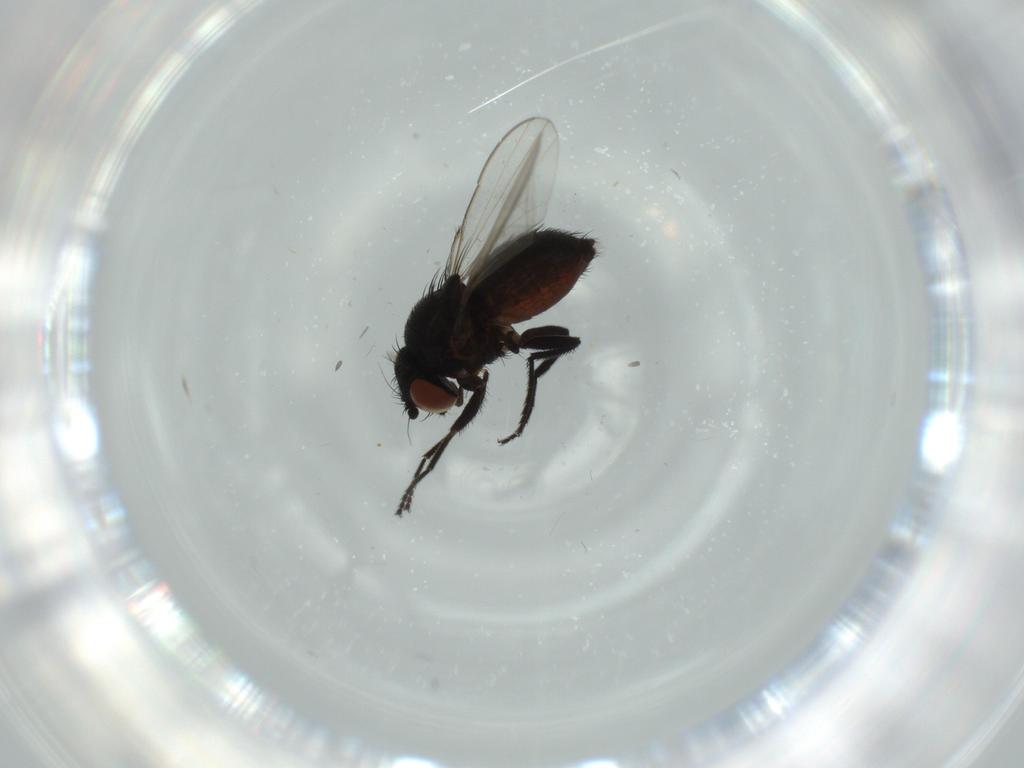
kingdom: Animalia
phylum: Arthropoda
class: Insecta
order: Diptera
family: Milichiidae
